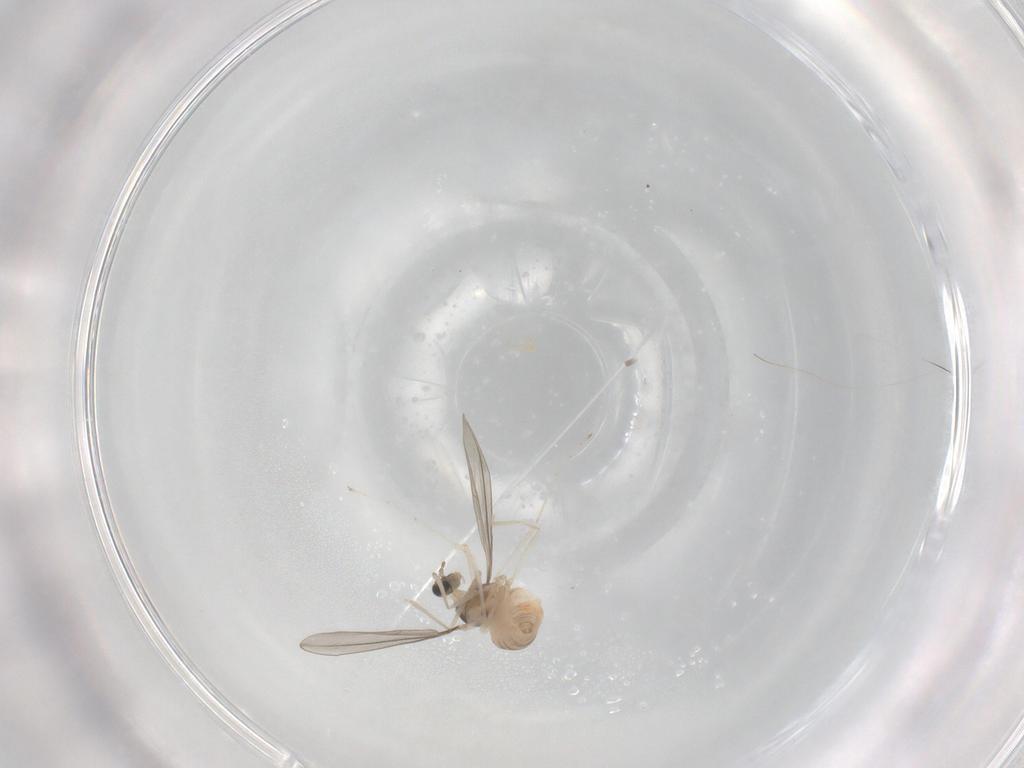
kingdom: Animalia
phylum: Arthropoda
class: Insecta
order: Diptera
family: Cecidomyiidae
